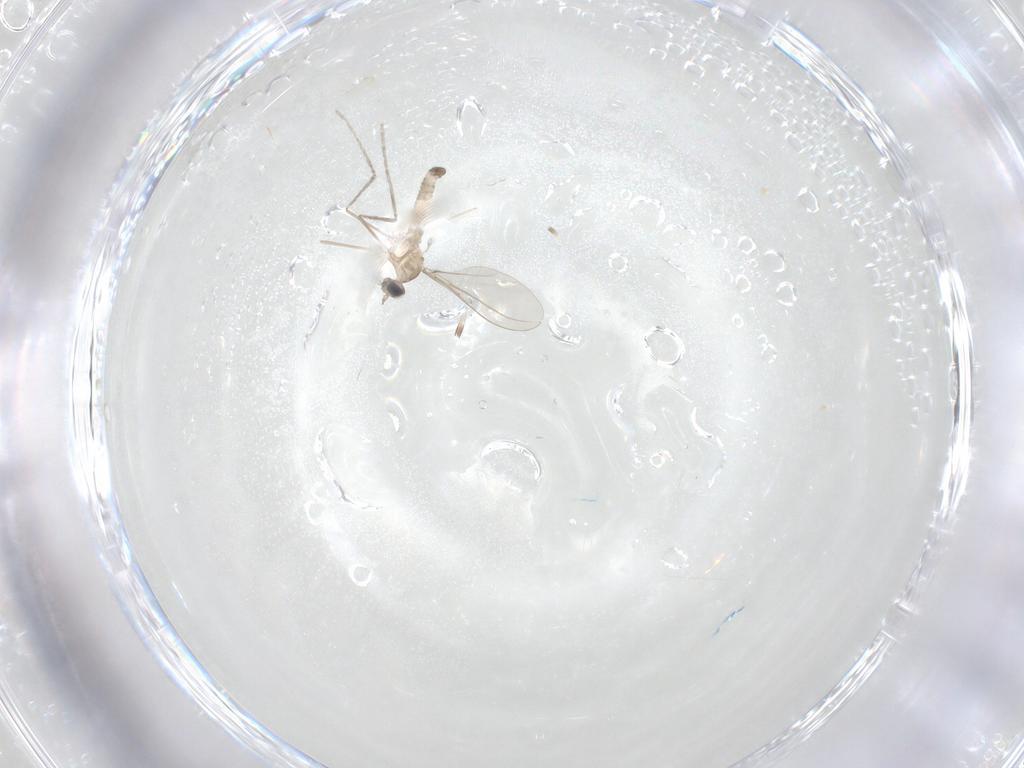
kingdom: Animalia
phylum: Arthropoda
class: Insecta
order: Diptera
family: Cecidomyiidae
